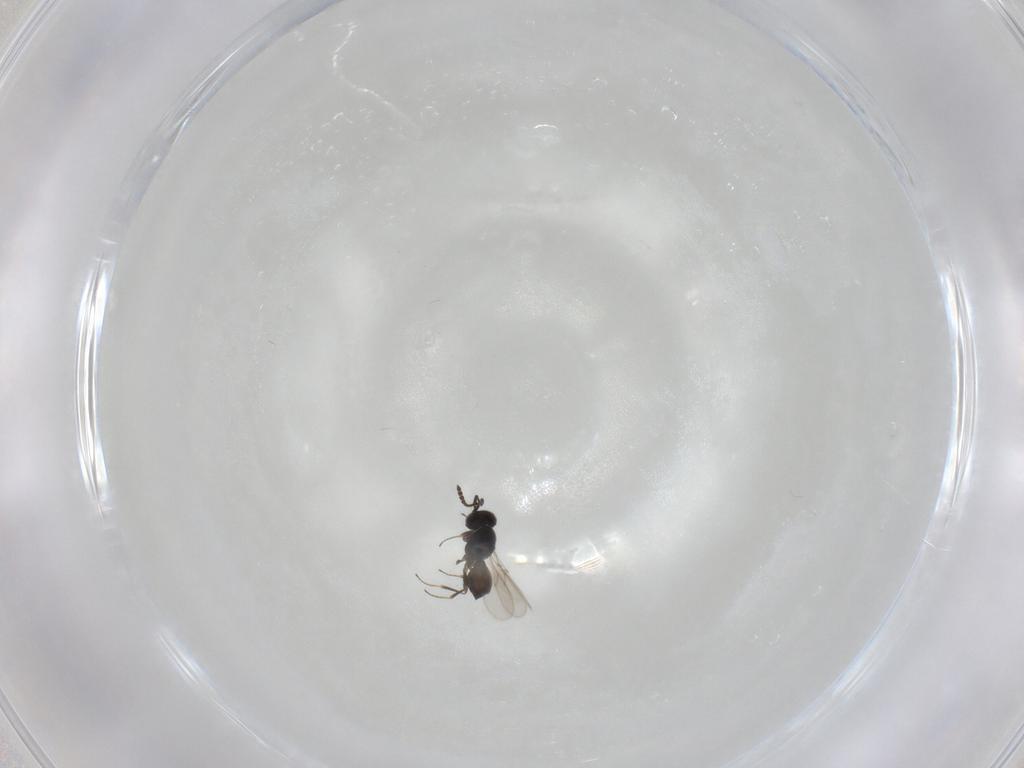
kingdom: Animalia
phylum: Arthropoda
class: Insecta
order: Hymenoptera
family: Scelionidae
